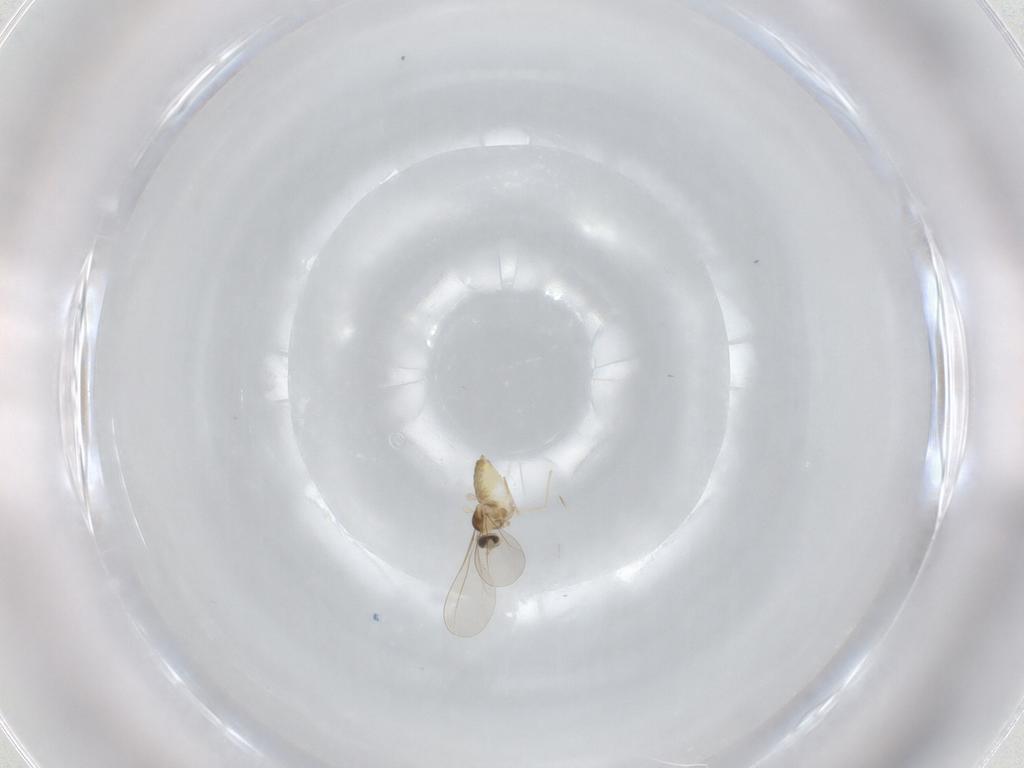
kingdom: Animalia
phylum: Arthropoda
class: Insecta
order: Diptera
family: Cecidomyiidae
